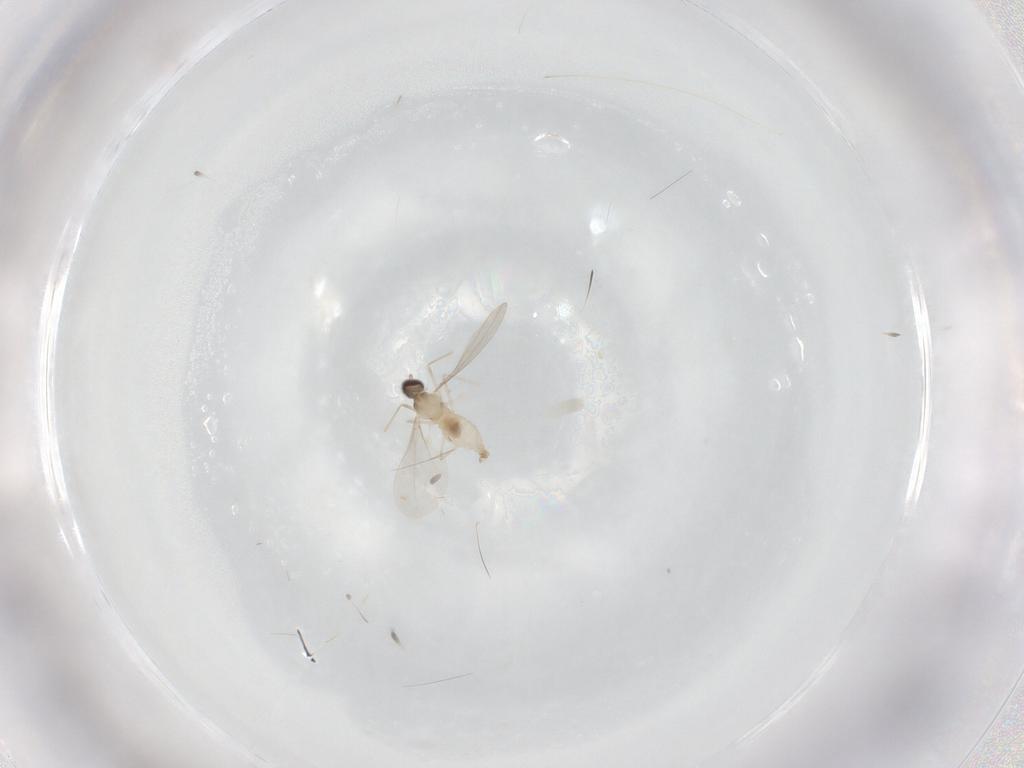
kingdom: Animalia
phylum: Arthropoda
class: Insecta
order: Diptera
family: Cecidomyiidae
